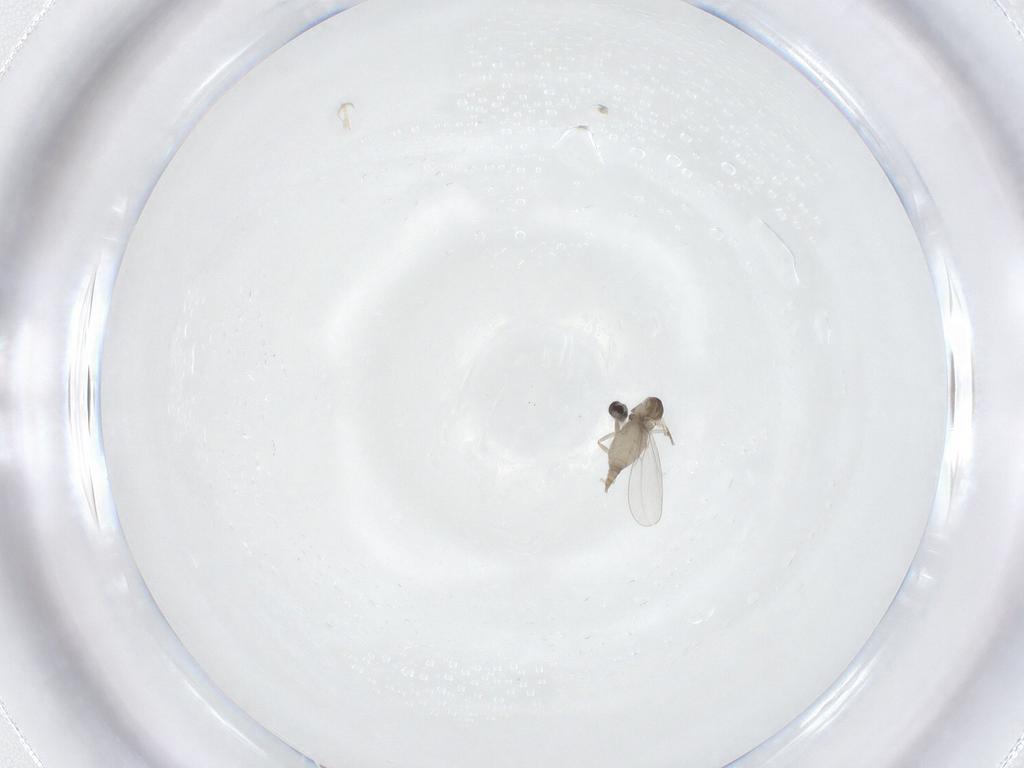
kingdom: Animalia
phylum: Arthropoda
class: Insecta
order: Diptera
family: Cecidomyiidae
